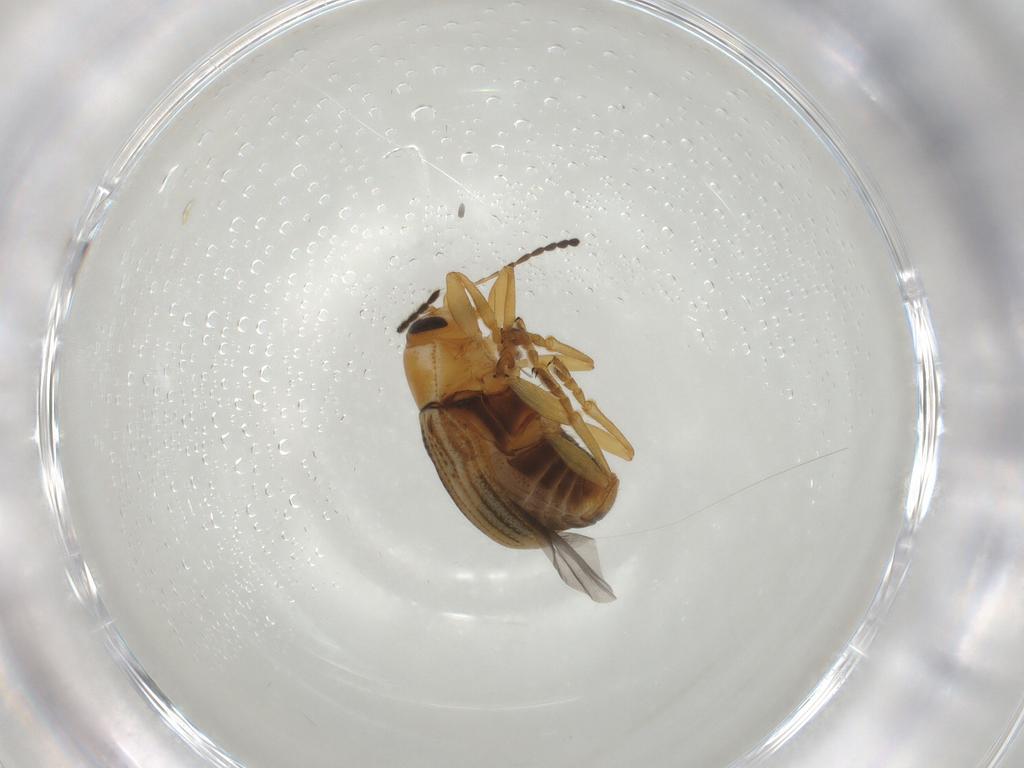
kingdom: Animalia
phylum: Arthropoda
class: Insecta
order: Coleoptera
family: Chrysomelidae
